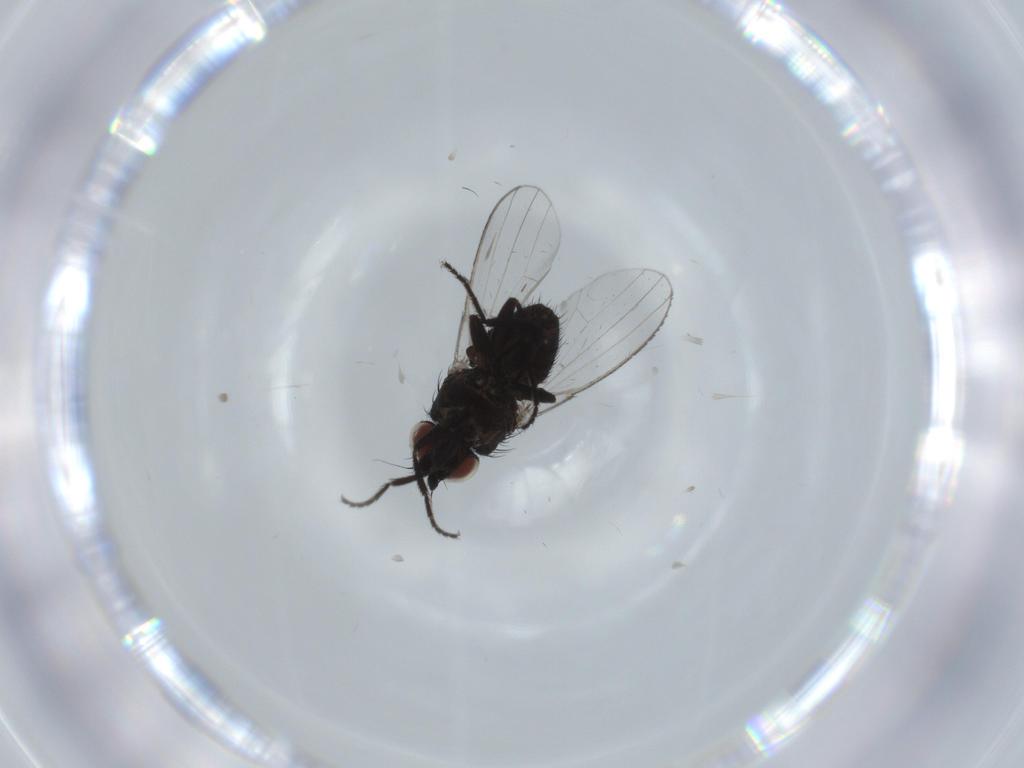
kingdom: Animalia
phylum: Arthropoda
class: Insecta
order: Diptera
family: Milichiidae
